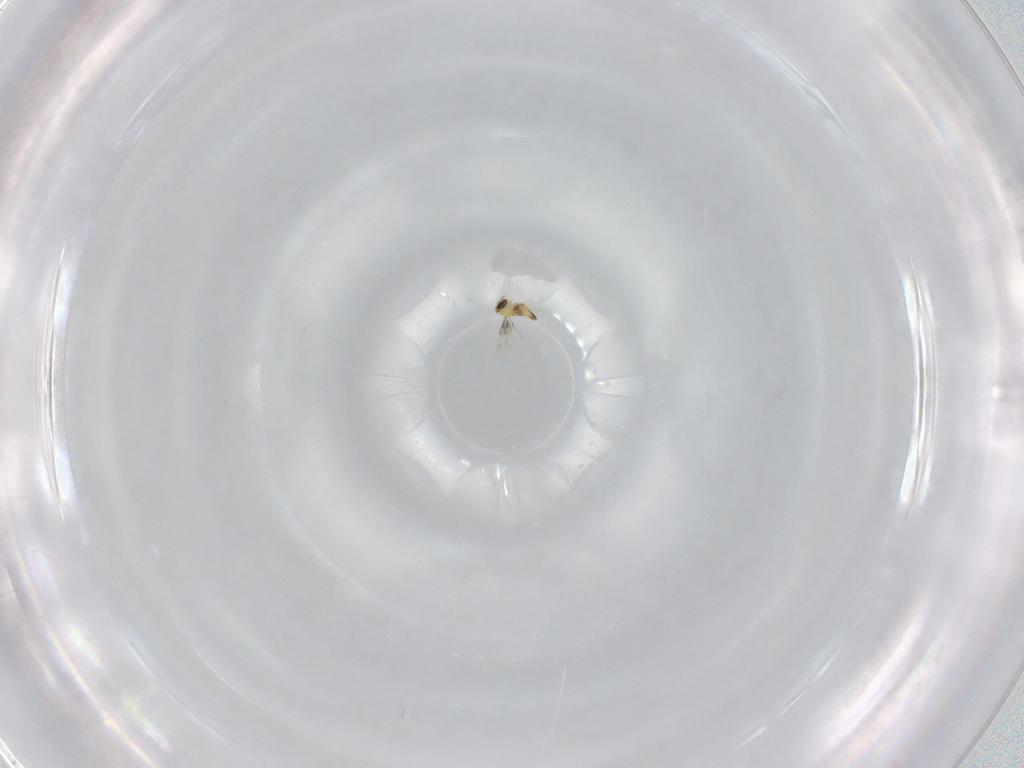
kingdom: Animalia
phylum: Arthropoda
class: Insecta
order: Hymenoptera
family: Trichogrammatidae
